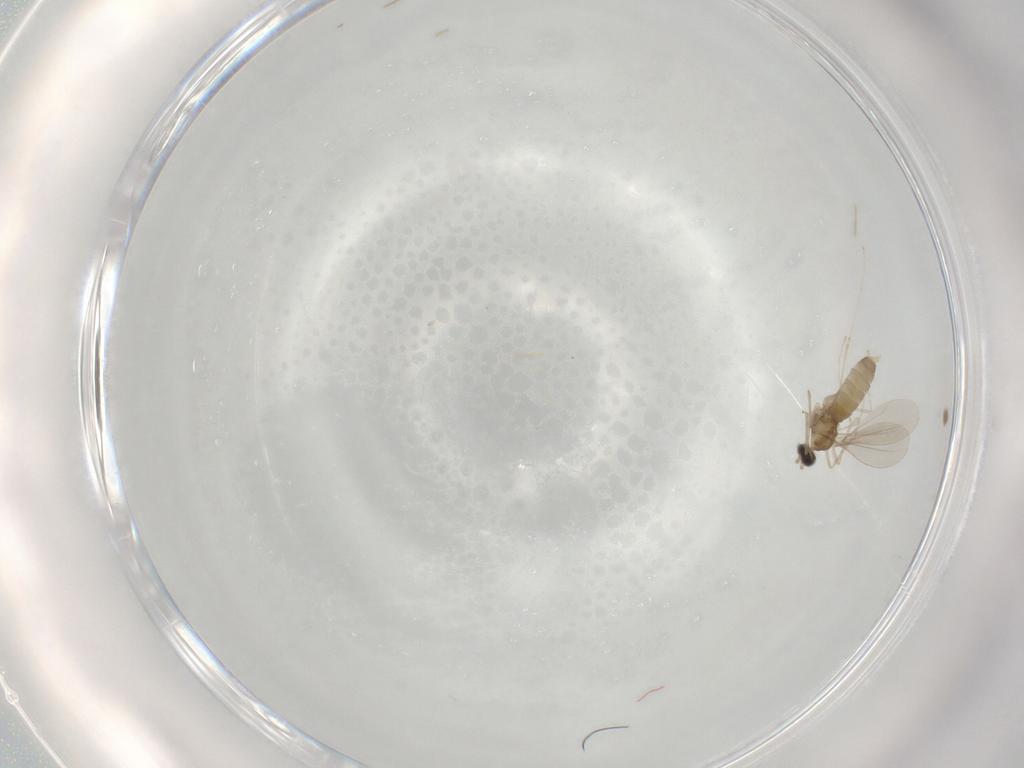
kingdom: Animalia
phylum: Arthropoda
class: Insecta
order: Diptera
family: Cecidomyiidae
